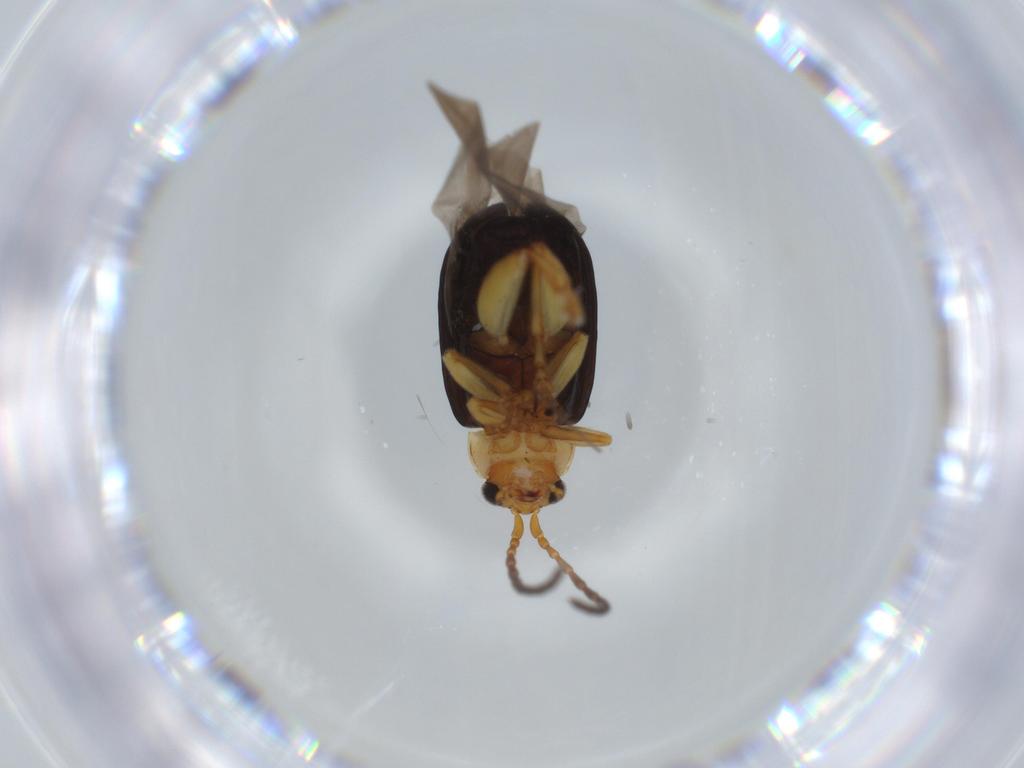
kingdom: Animalia
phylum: Arthropoda
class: Insecta
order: Coleoptera
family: Chrysomelidae
